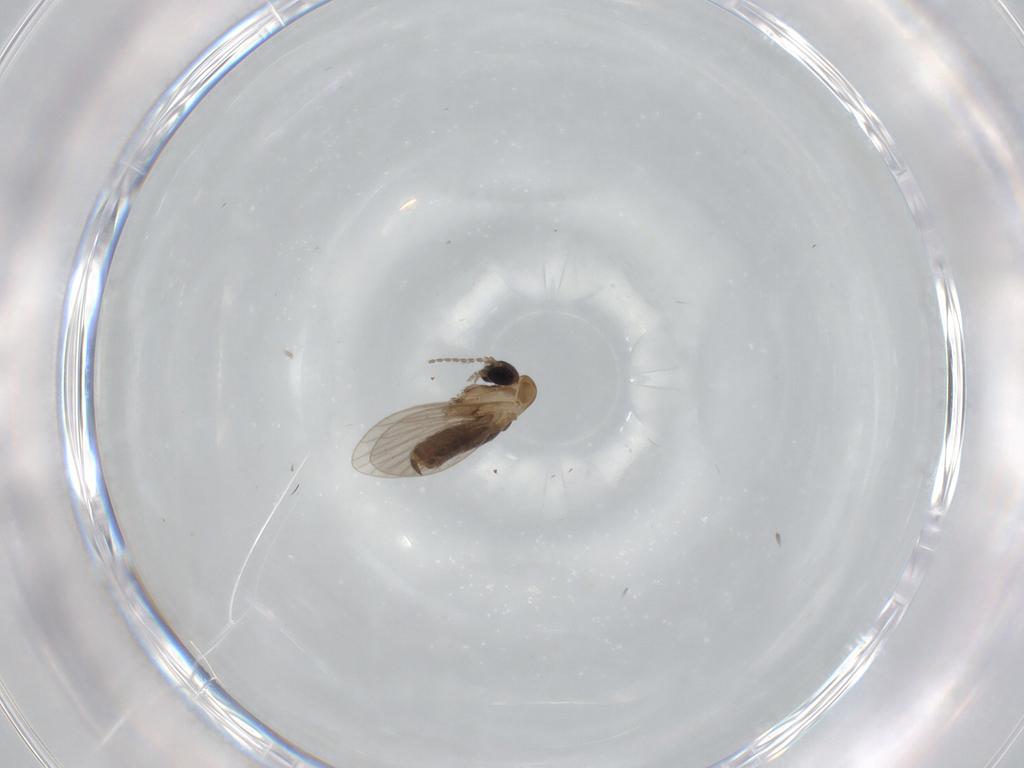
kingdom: Animalia
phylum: Arthropoda
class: Insecta
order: Diptera
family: Psychodidae
